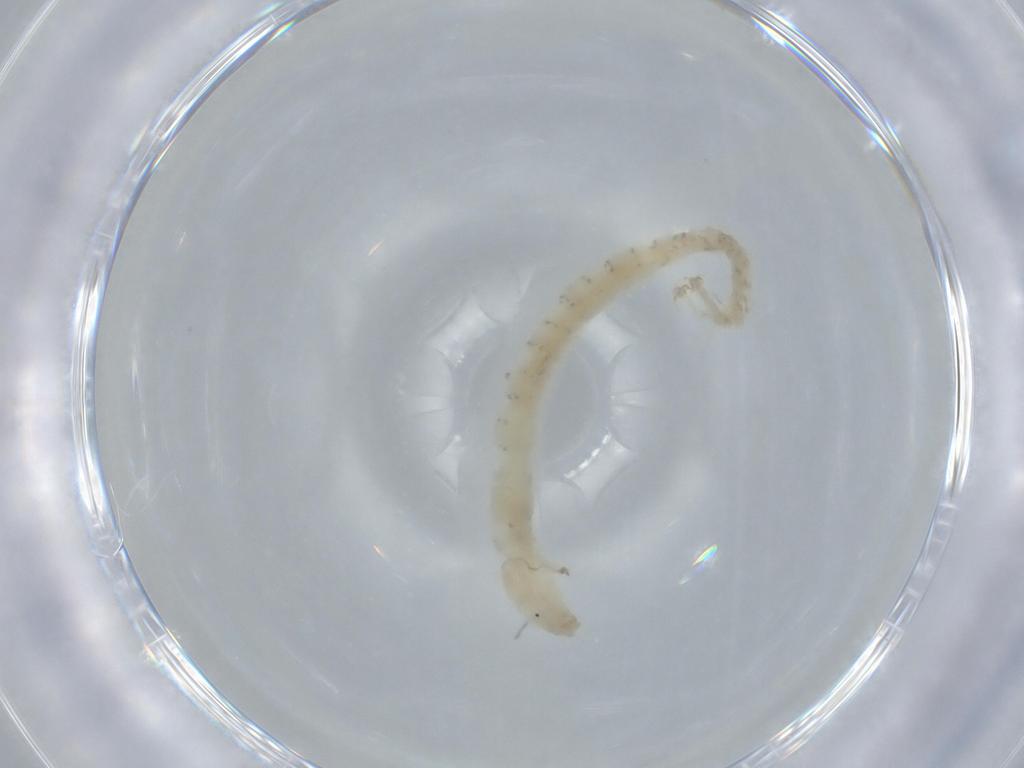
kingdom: Animalia
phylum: Arthropoda
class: Insecta
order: Diptera
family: Chironomidae
